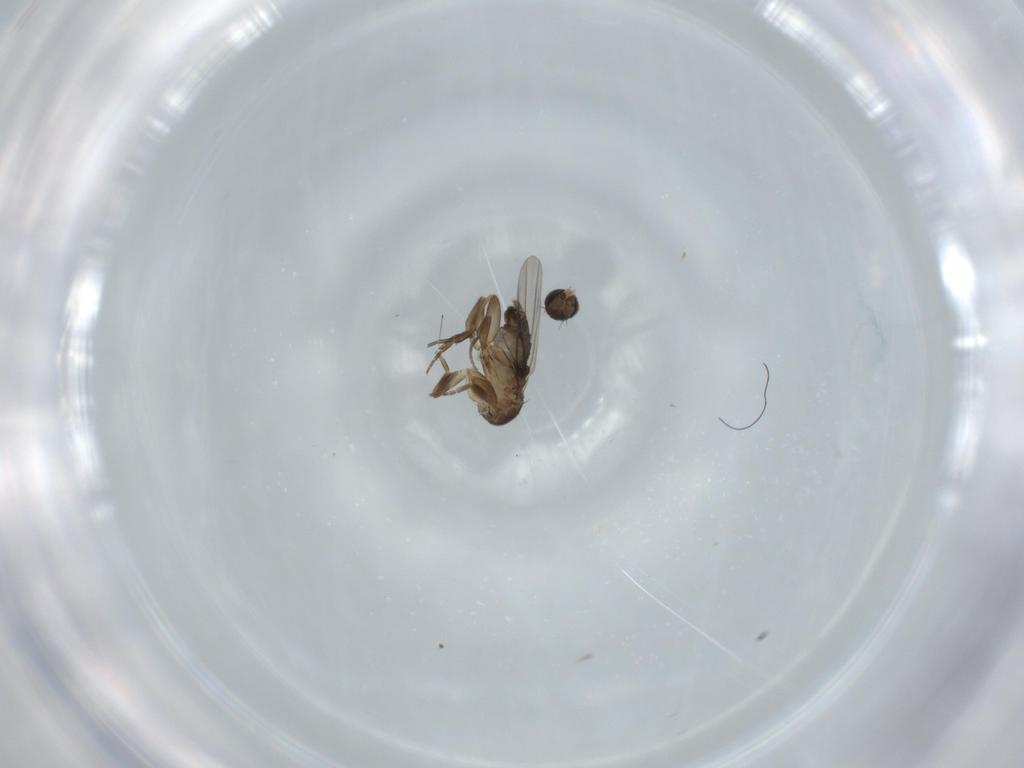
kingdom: Animalia
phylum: Arthropoda
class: Insecta
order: Diptera
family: Phoridae
